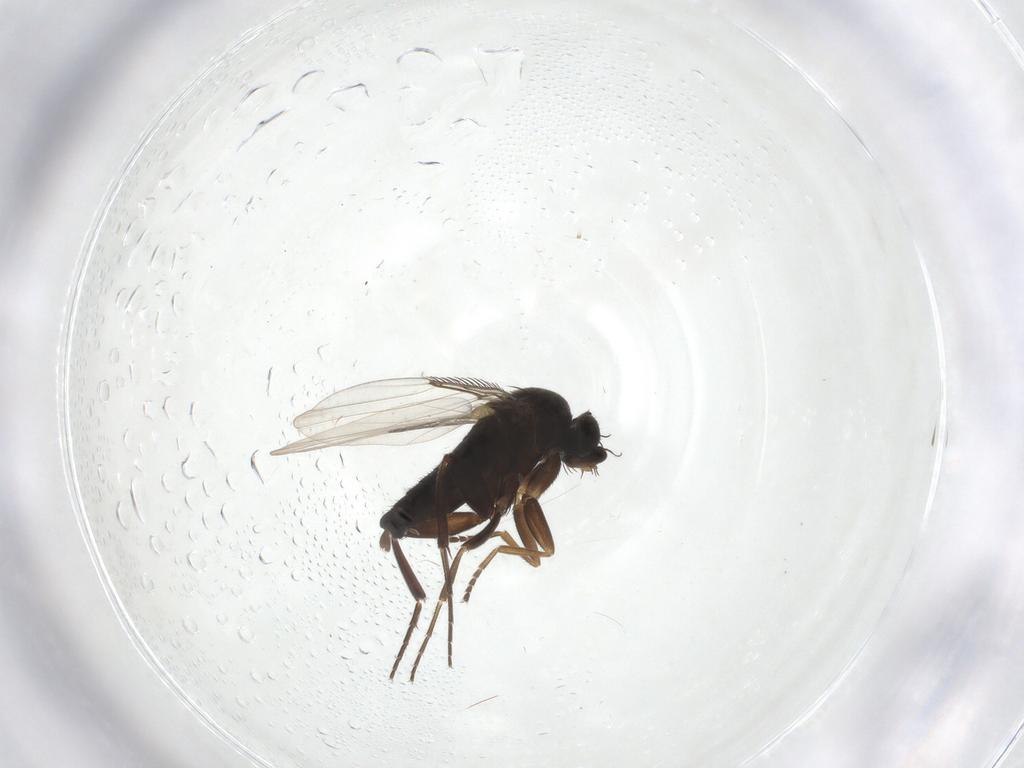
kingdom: Animalia
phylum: Arthropoda
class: Insecta
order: Diptera
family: Phoridae
